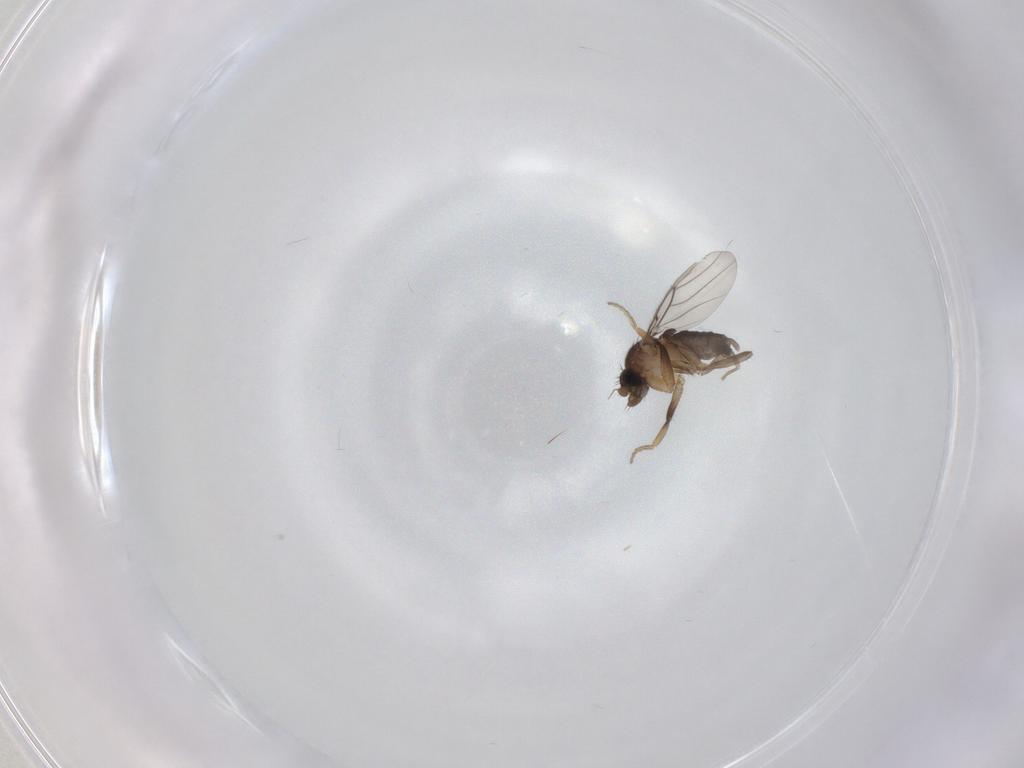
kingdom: Animalia
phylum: Arthropoda
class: Insecta
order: Diptera
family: Phoridae
